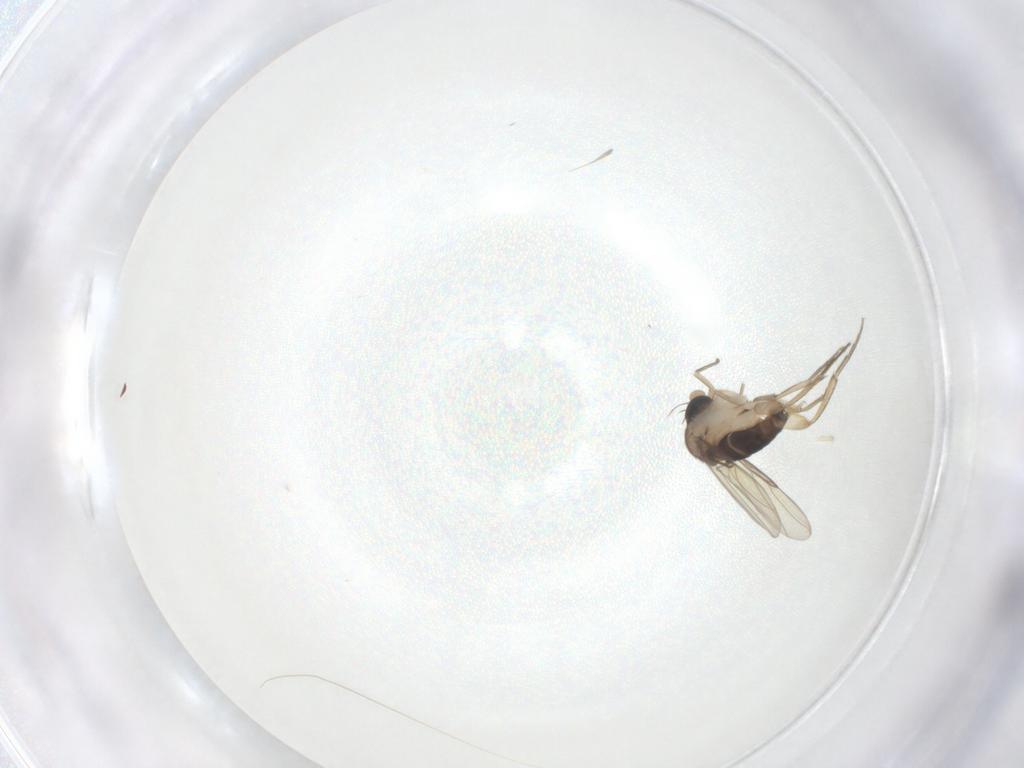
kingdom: Animalia
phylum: Arthropoda
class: Insecta
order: Diptera
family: Phoridae
